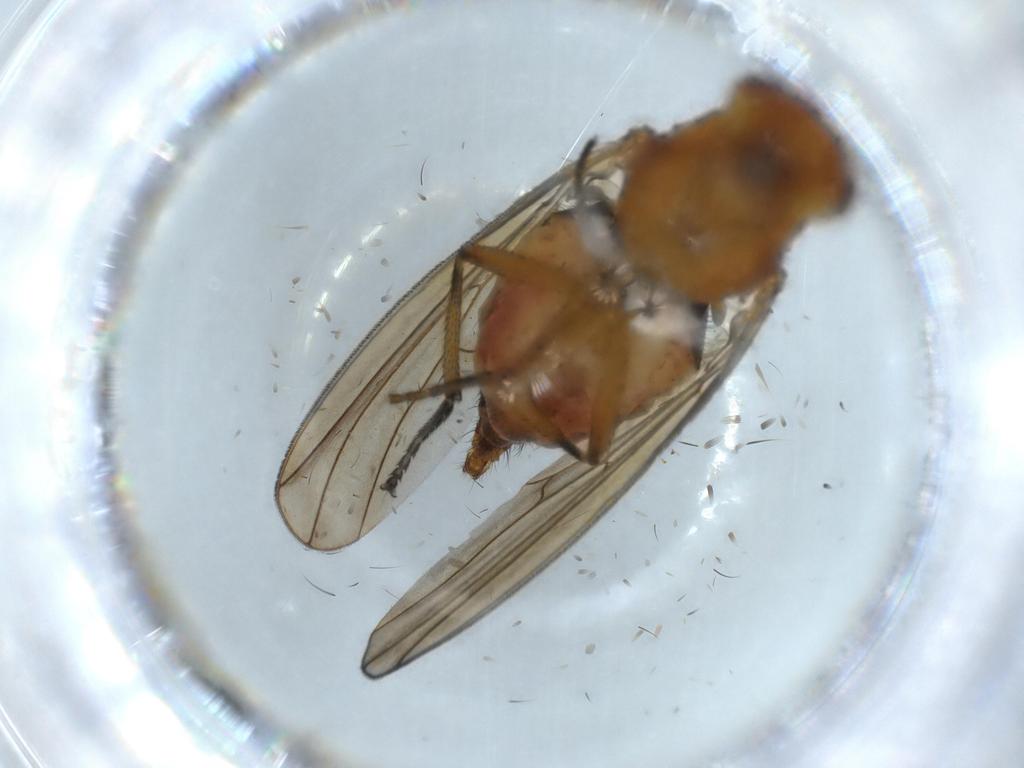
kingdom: Animalia
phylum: Arthropoda
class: Insecta
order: Diptera
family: Lauxaniidae
